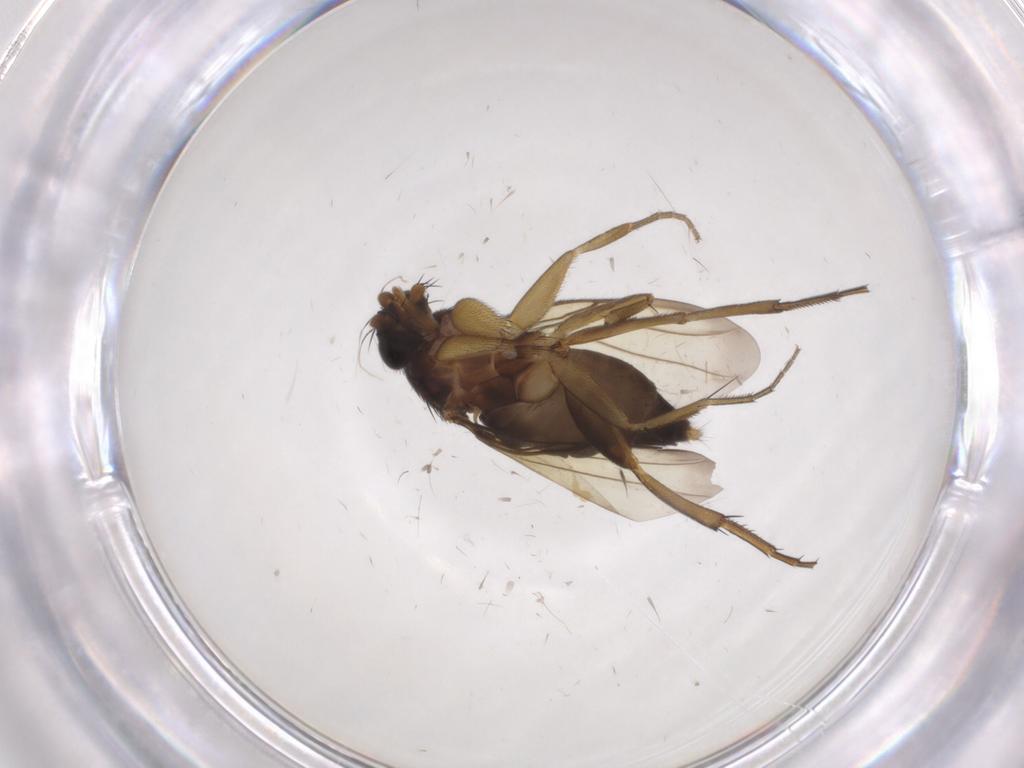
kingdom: Animalia
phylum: Arthropoda
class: Insecta
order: Diptera
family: Phoridae
